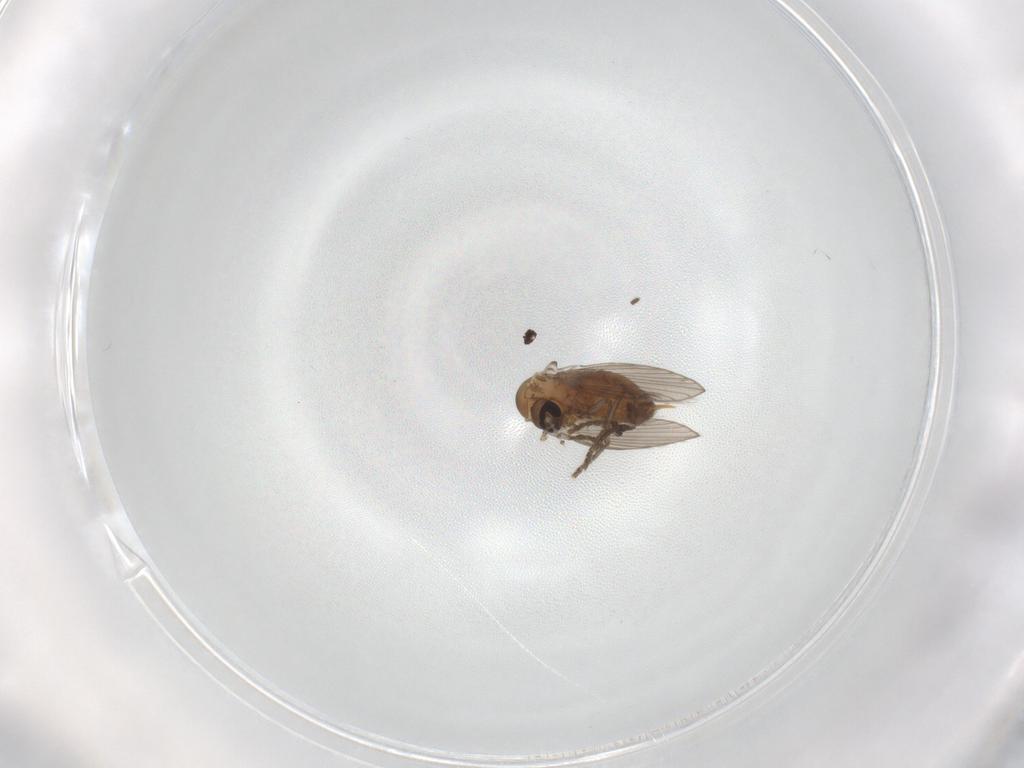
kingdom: Animalia
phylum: Arthropoda
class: Insecta
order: Diptera
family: Psychodidae
